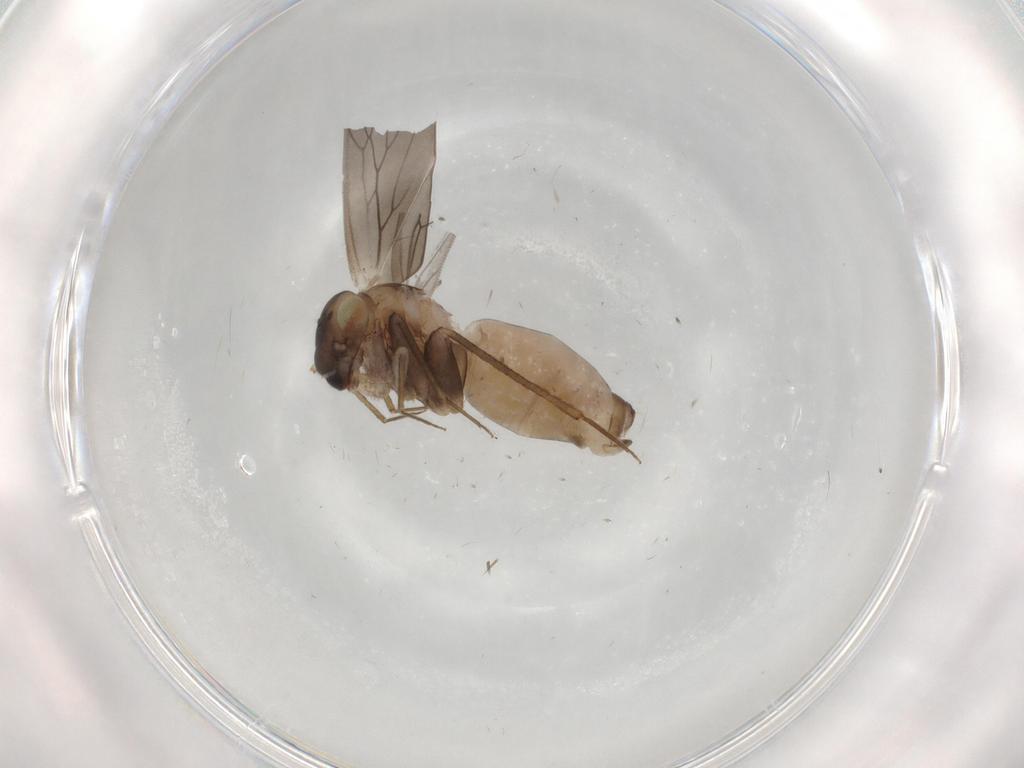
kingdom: Animalia
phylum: Arthropoda
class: Insecta
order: Psocodea
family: Lepidopsocidae
